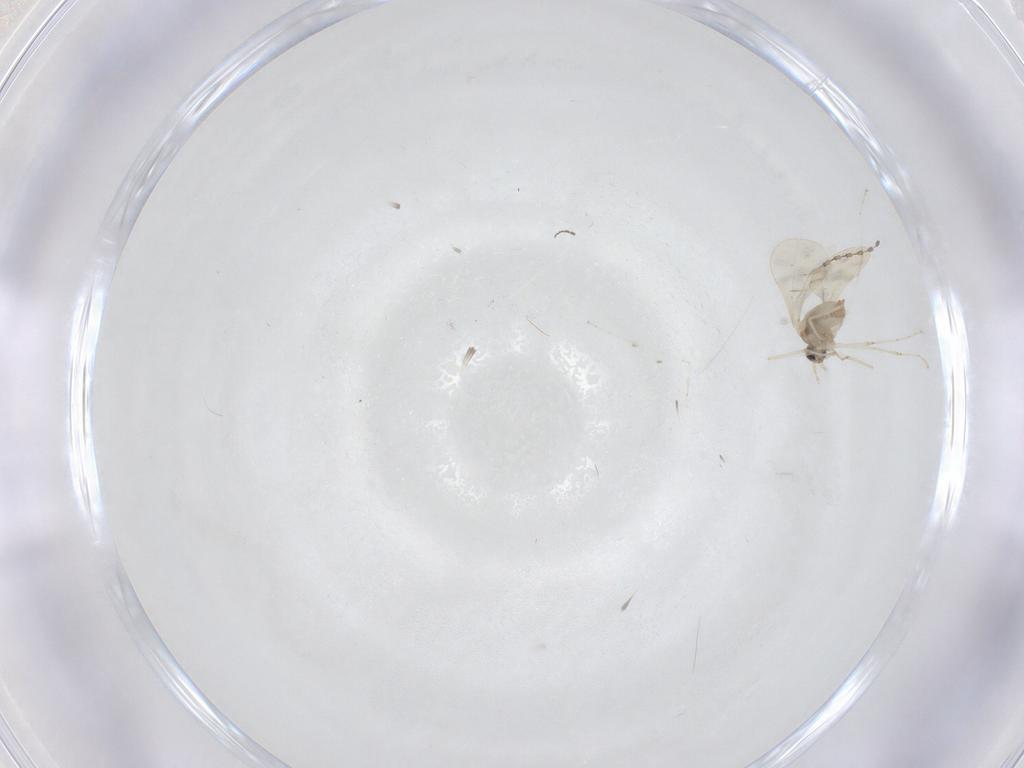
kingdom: Animalia
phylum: Arthropoda
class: Insecta
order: Diptera
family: Cecidomyiidae
